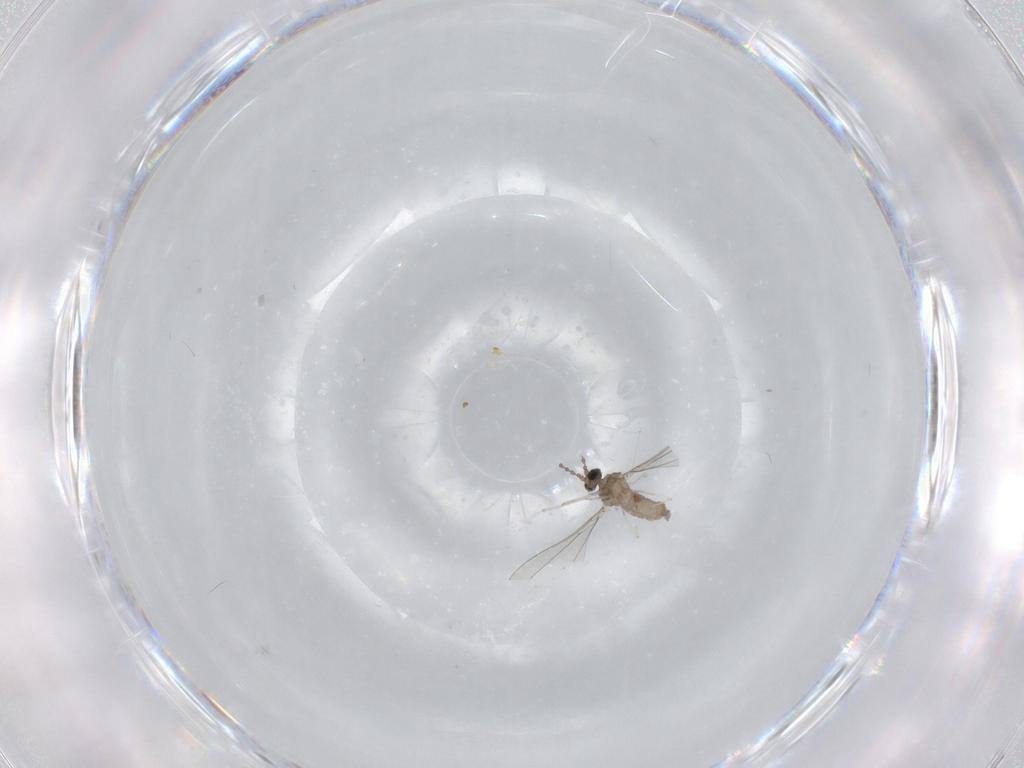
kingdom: Animalia
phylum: Arthropoda
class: Insecta
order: Diptera
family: Cecidomyiidae
